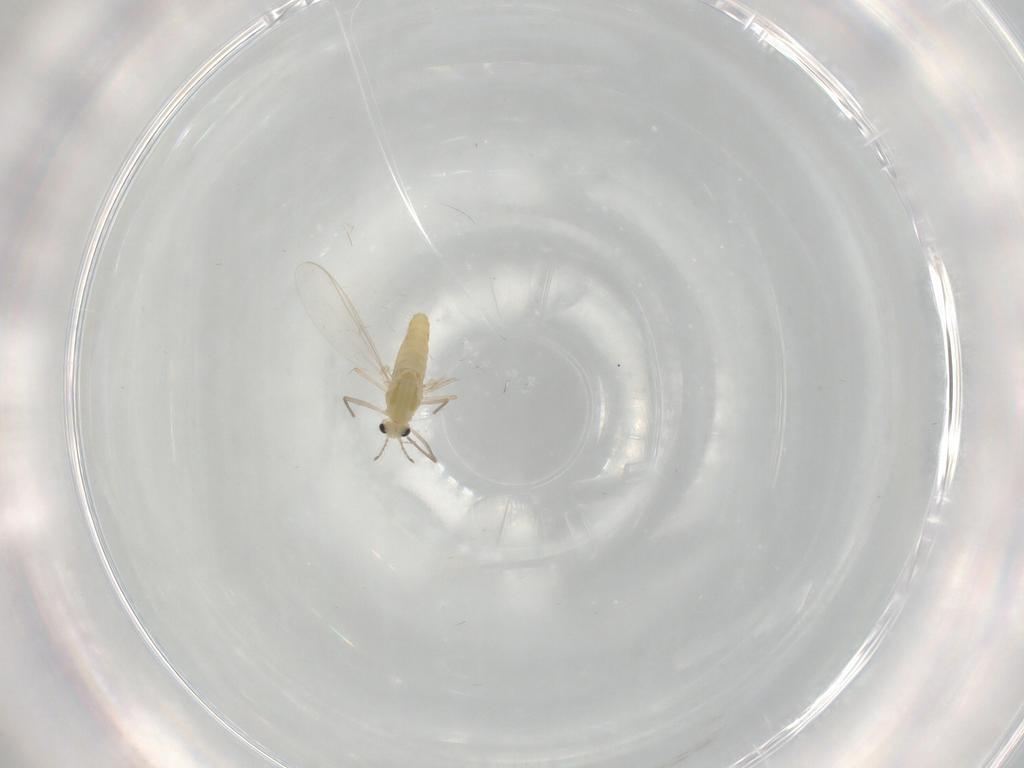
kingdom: Animalia
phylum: Arthropoda
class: Insecta
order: Diptera
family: Chironomidae
